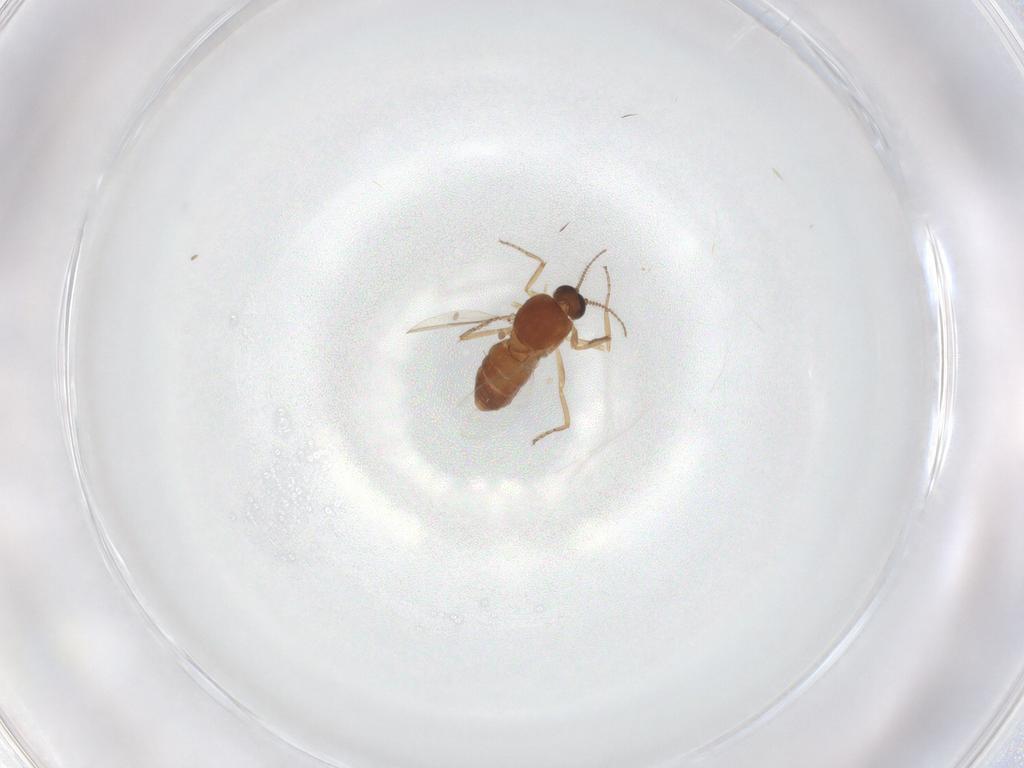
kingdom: Animalia
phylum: Arthropoda
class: Insecta
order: Diptera
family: Ceratopogonidae
